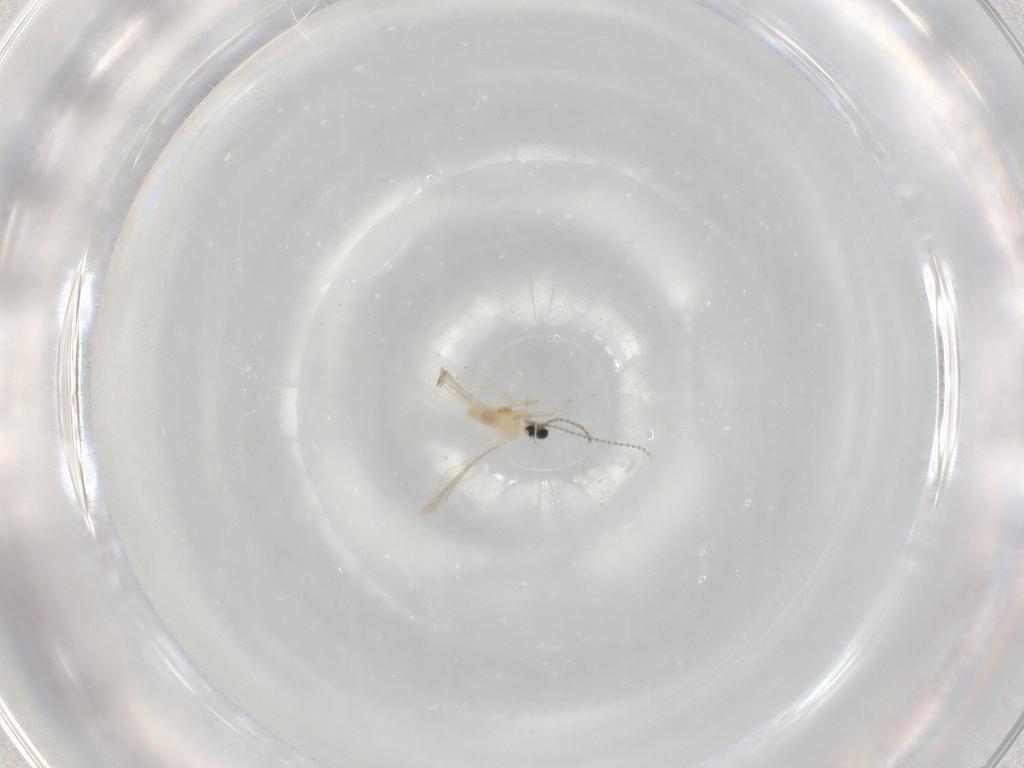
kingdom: Animalia
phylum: Arthropoda
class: Insecta
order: Diptera
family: Cecidomyiidae
